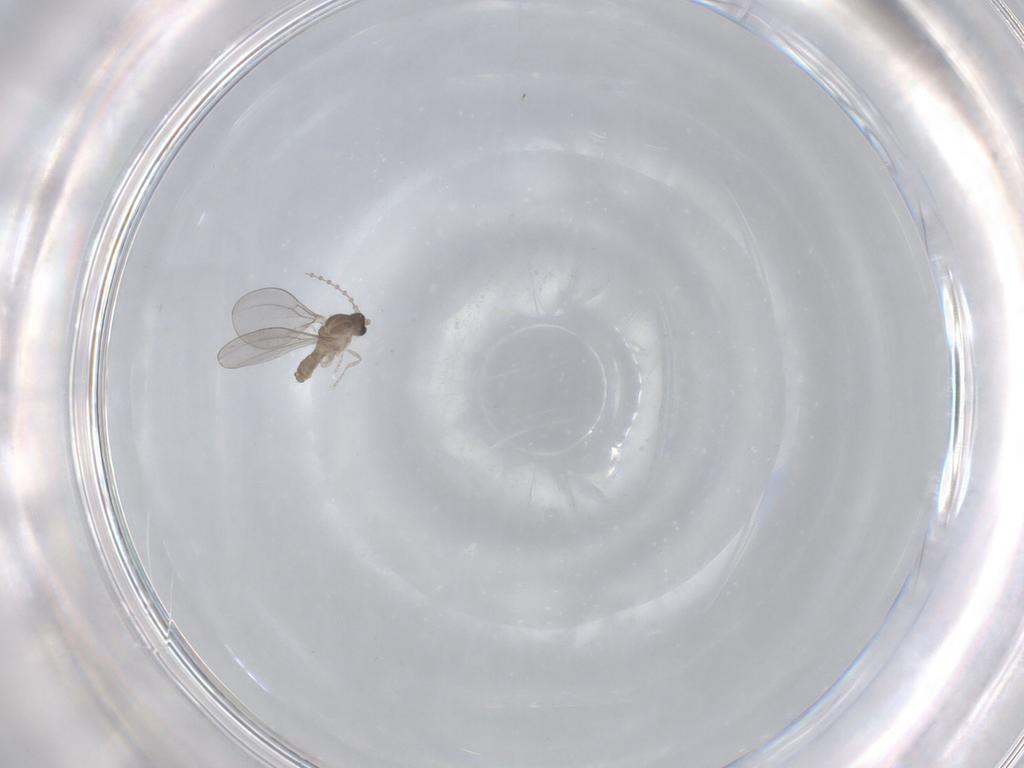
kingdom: Animalia
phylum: Arthropoda
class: Insecta
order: Diptera
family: Cecidomyiidae
